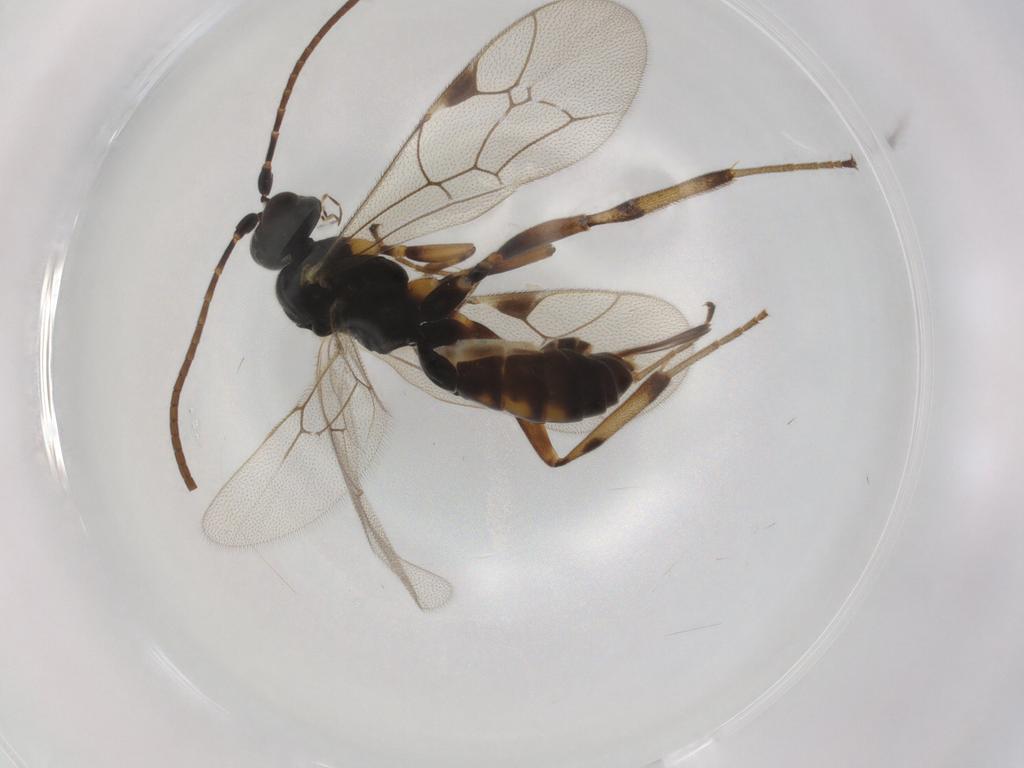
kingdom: Animalia
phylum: Arthropoda
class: Insecta
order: Hymenoptera
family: Ichneumonidae
